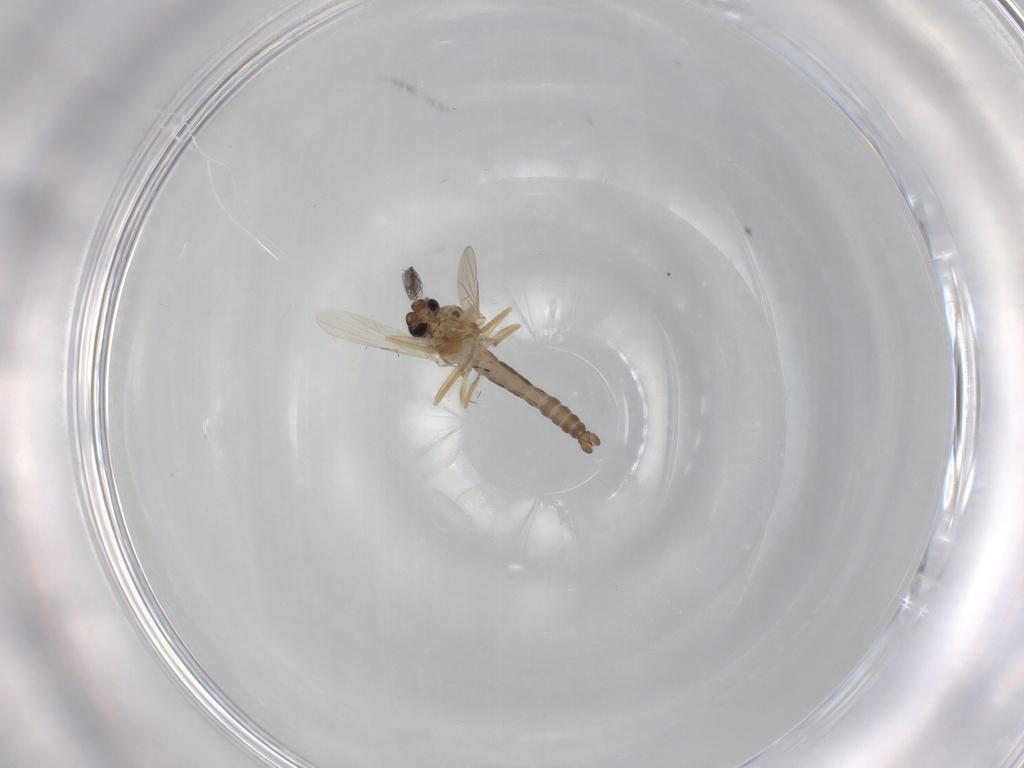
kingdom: Animalia
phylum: Arthropoda
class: Insecta
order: Diptera
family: Ceratopogonidae
